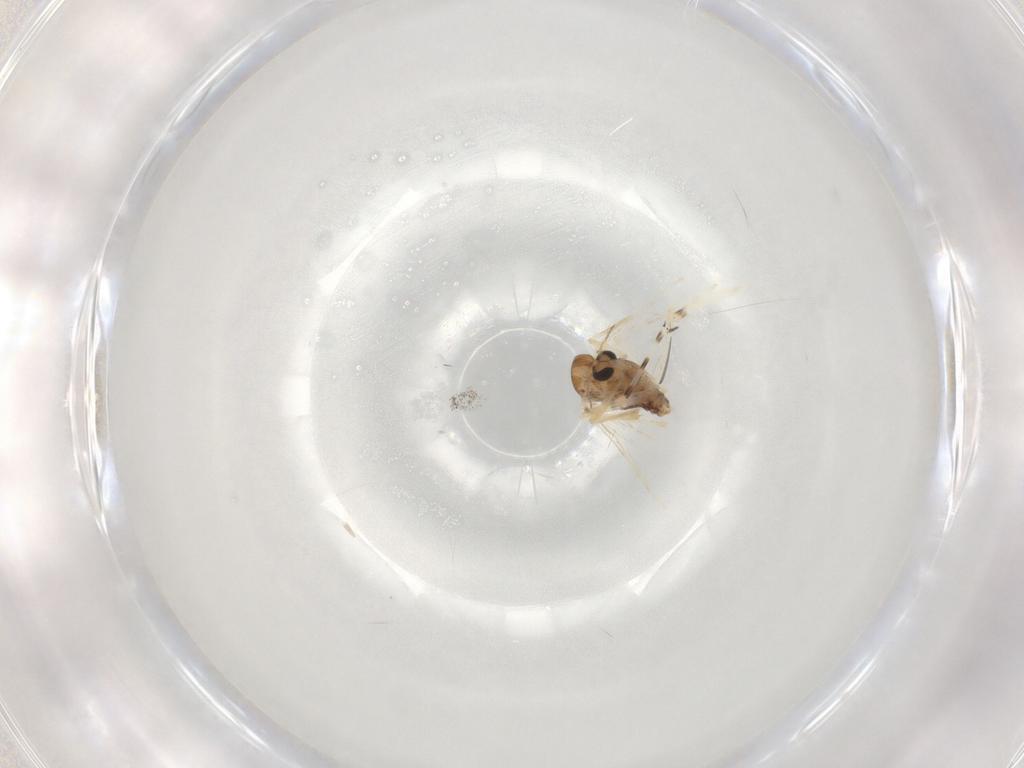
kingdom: Animalia
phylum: Arthropoda
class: Insecta
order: Diptera
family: Chironomidae
